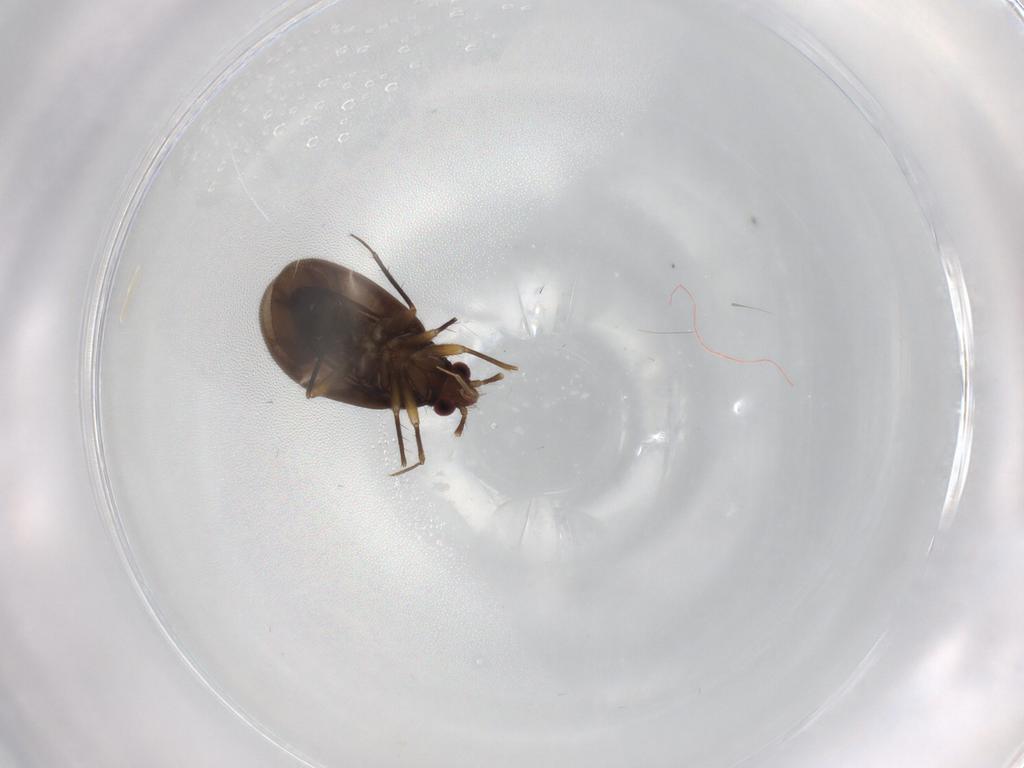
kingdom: Animalia
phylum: Arthropoda
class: Insecta
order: Hemiptera
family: Ceratocombidae
